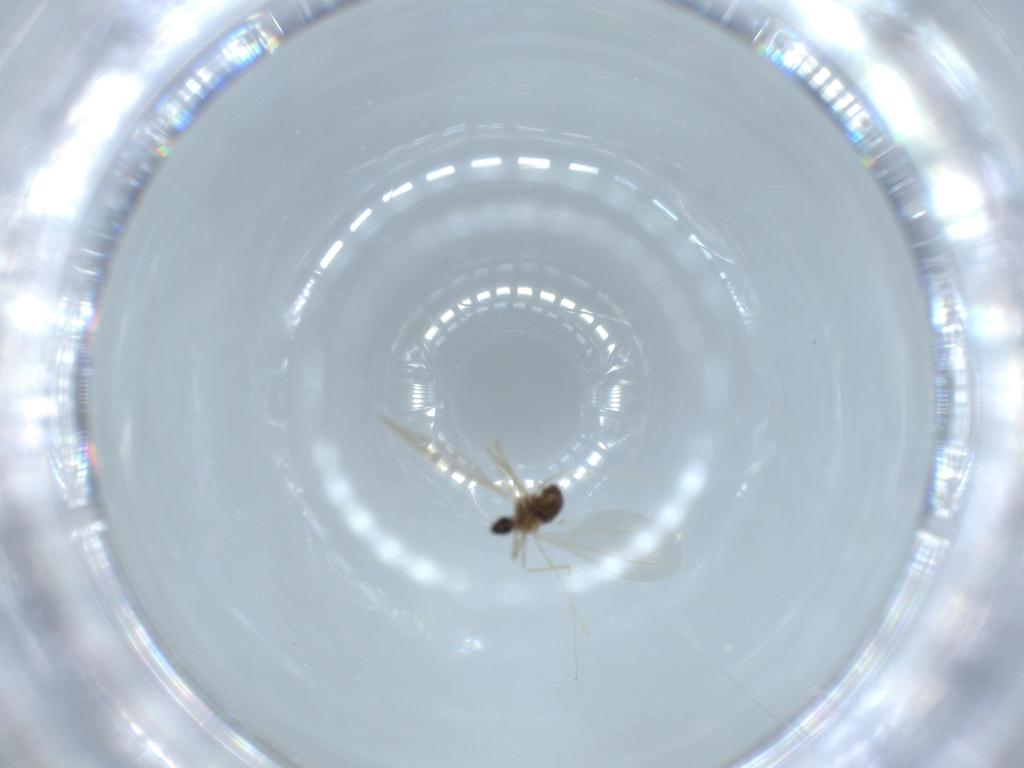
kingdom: Animalia
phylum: Arthropoda
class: Insecta
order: Diptera
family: Cecidomyiidae
